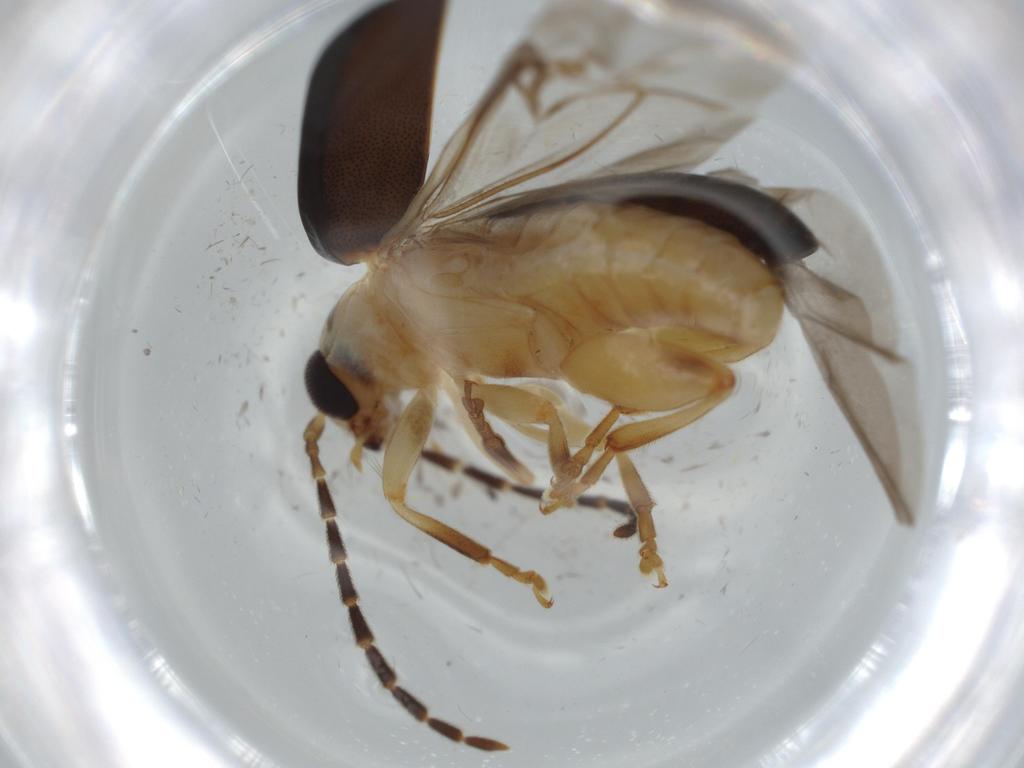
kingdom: Animalia
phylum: Arthropoda
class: Insecta
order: Coleoptera
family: Chrysomelidae
